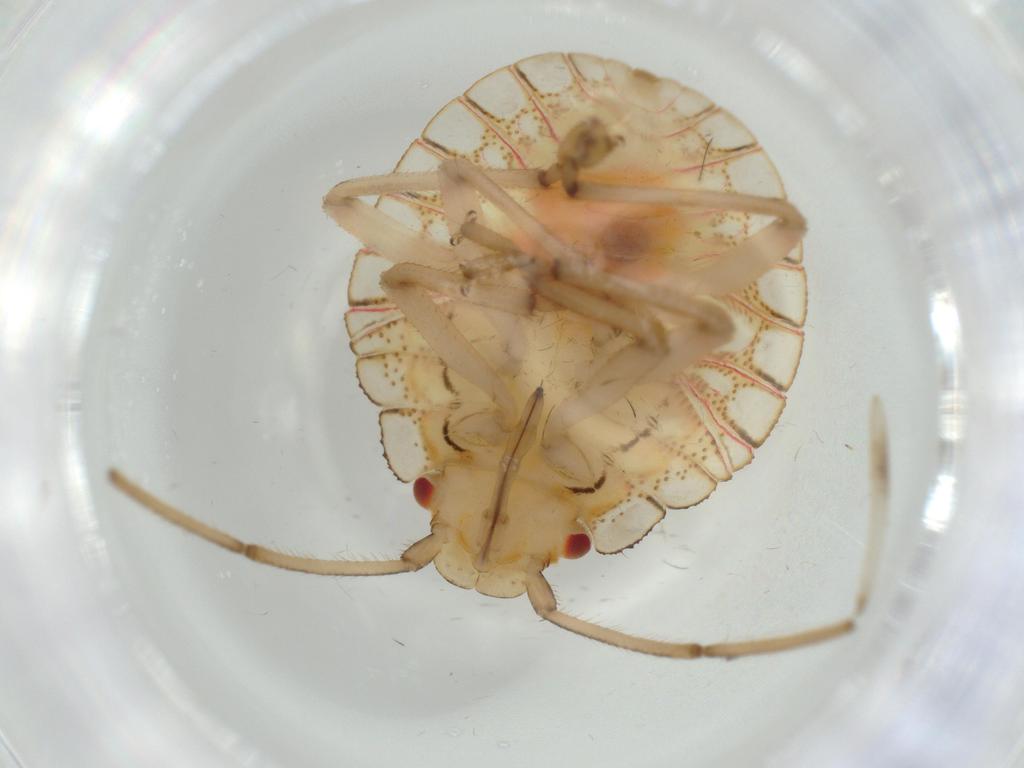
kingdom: Animalia
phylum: Arthropoda
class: Insecta
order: Hemiptera
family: Pentatomidae
